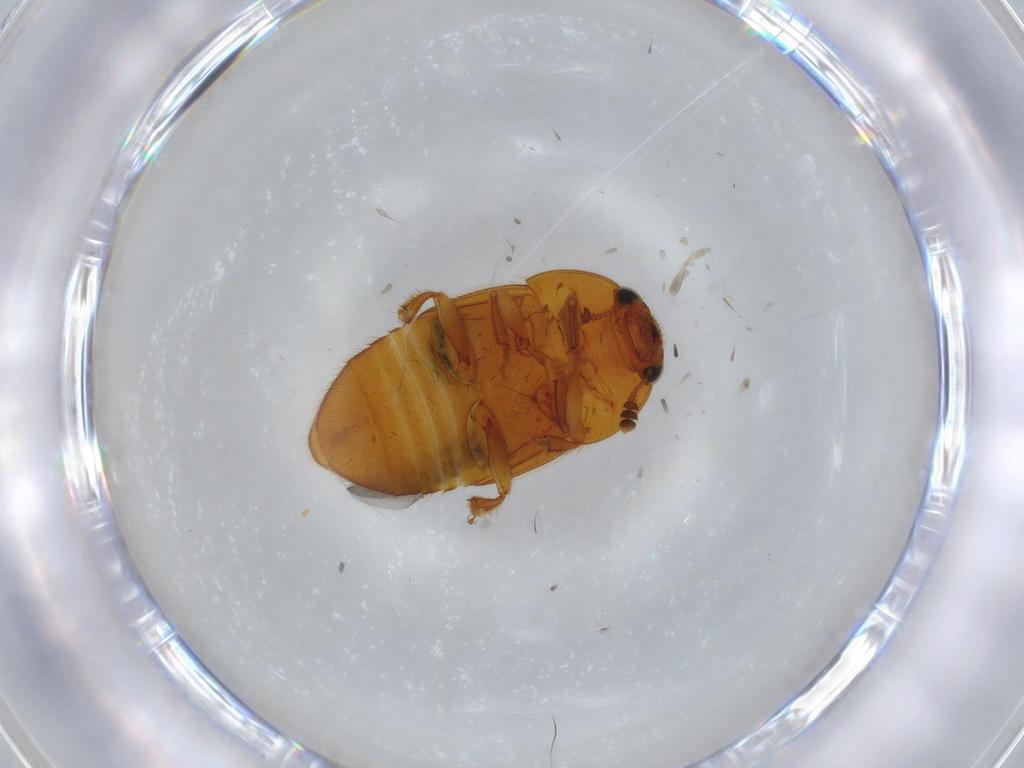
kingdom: Animalia
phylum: Arthropoda
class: Insecta
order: Coleoptera
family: Nitidulidae
